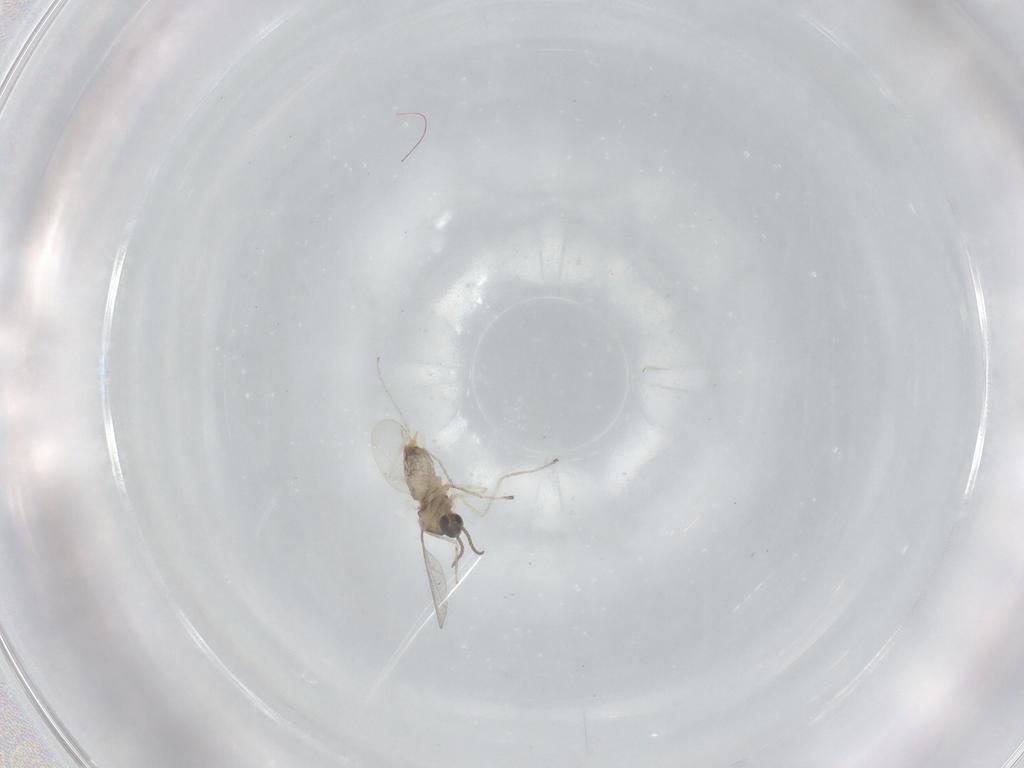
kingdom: Animalia
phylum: Arthropoda
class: Insecta
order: Diptera
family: Cecidomyiidae
